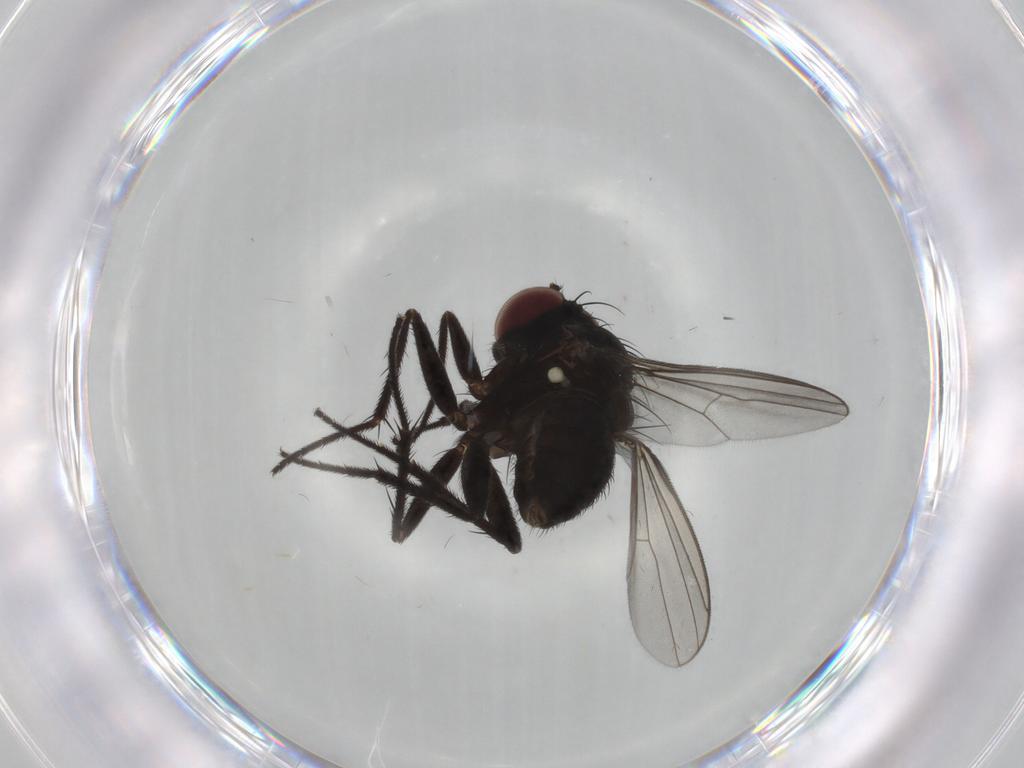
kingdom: Animalia
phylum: Arthropoda
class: Insecta
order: Diptera
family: Dolichopodidae
